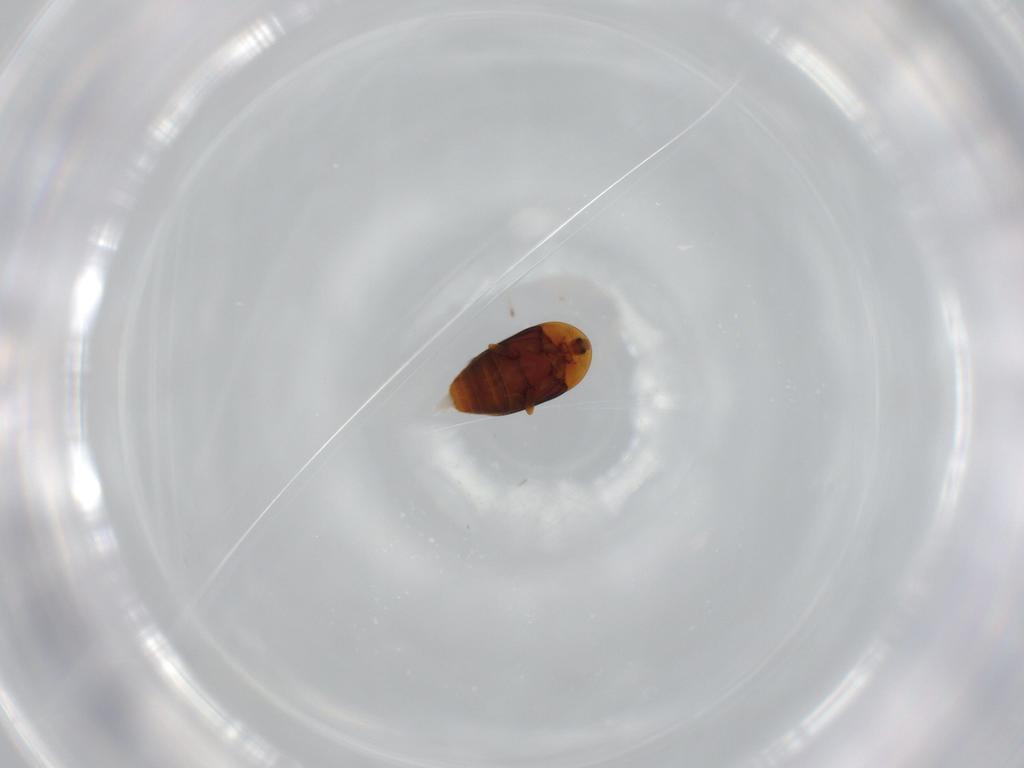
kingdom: Animalia
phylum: Arthropoda
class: Insecta
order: Coleoptera
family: Corylophidae
